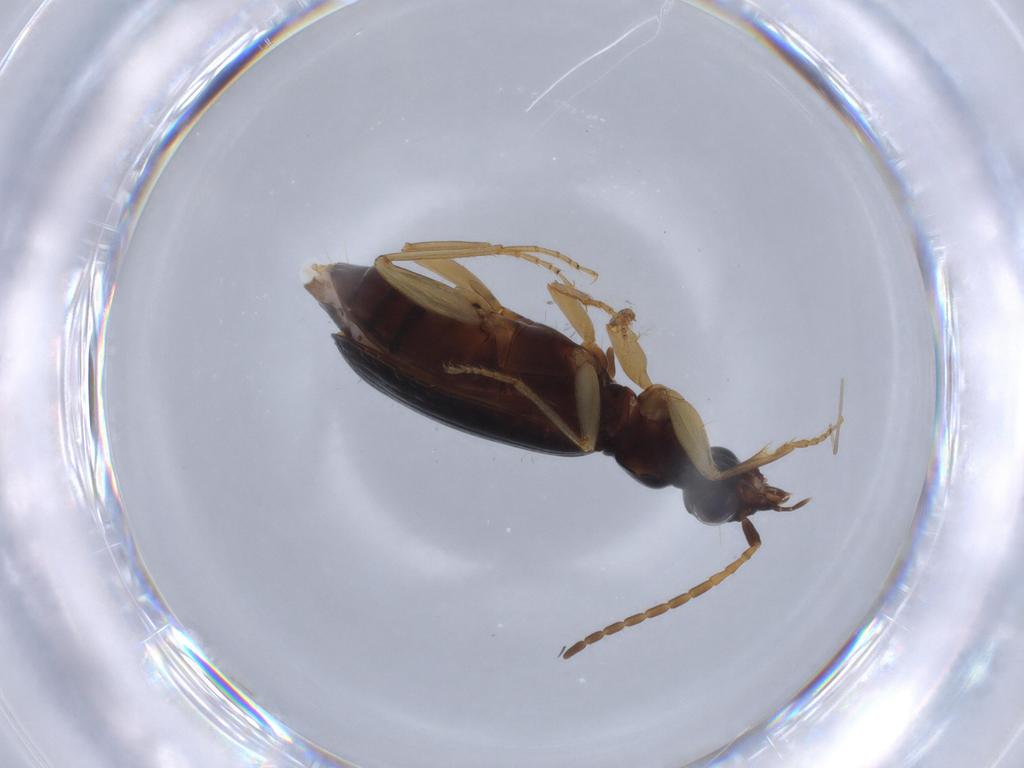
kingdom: Animalia
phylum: Arthropoda
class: Insecta
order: Coleoptera
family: Carabidae
